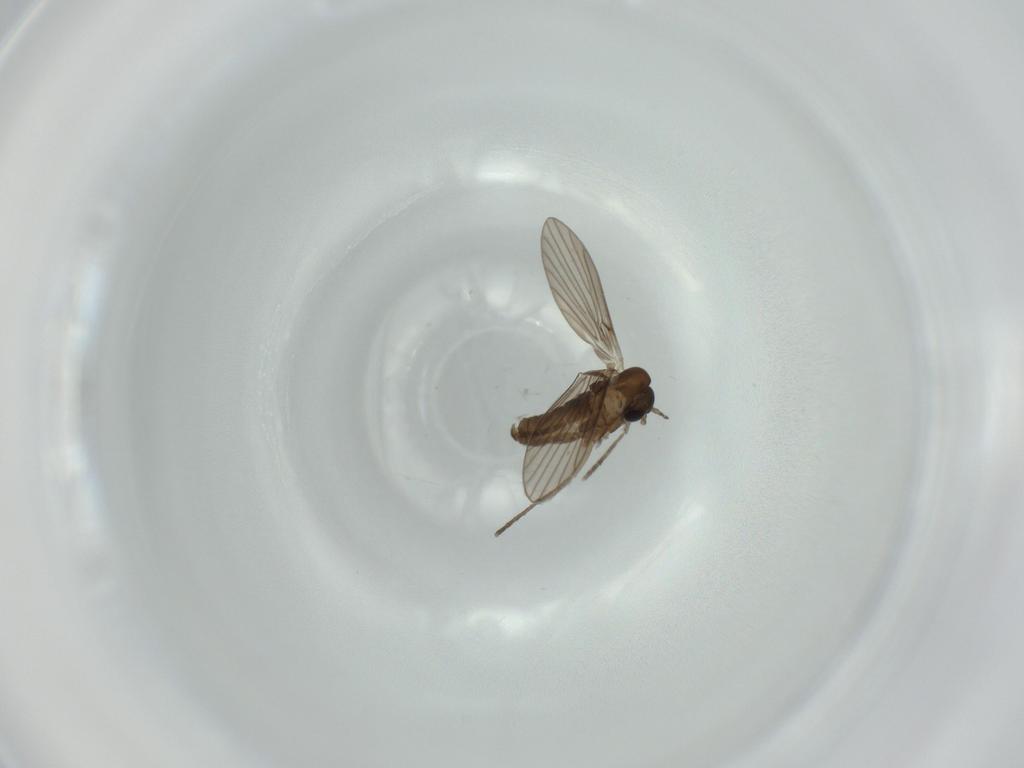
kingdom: Animalia
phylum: Arthropoda
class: Insecta
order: Diptera
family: Psychodidae
